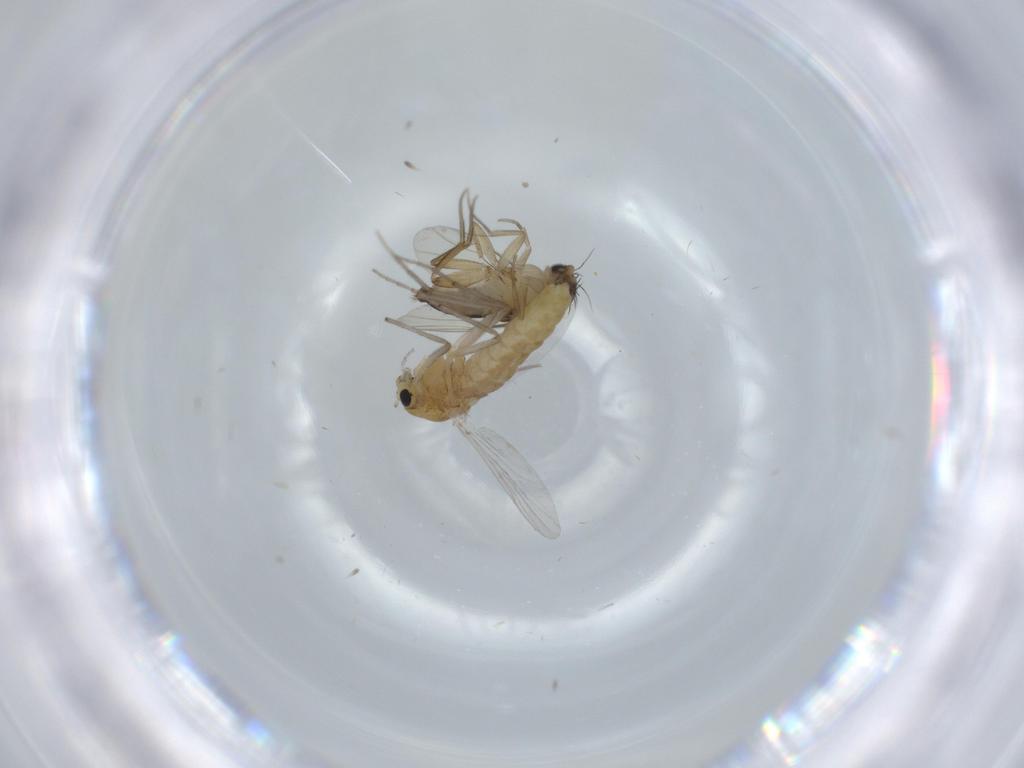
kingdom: Animalia
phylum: Arthropoda
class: Insecta
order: Diptera
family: Chironomidae
